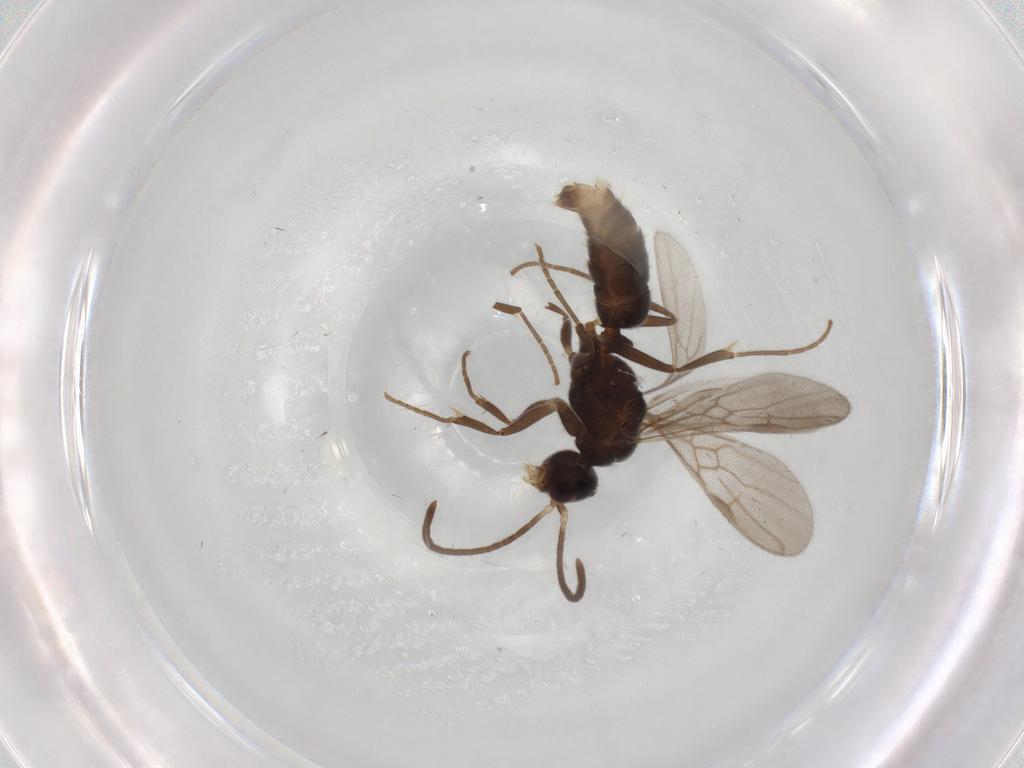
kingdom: Animalia
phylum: Arthropoda
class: Insecta
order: Hymenoptera
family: Formicidae
